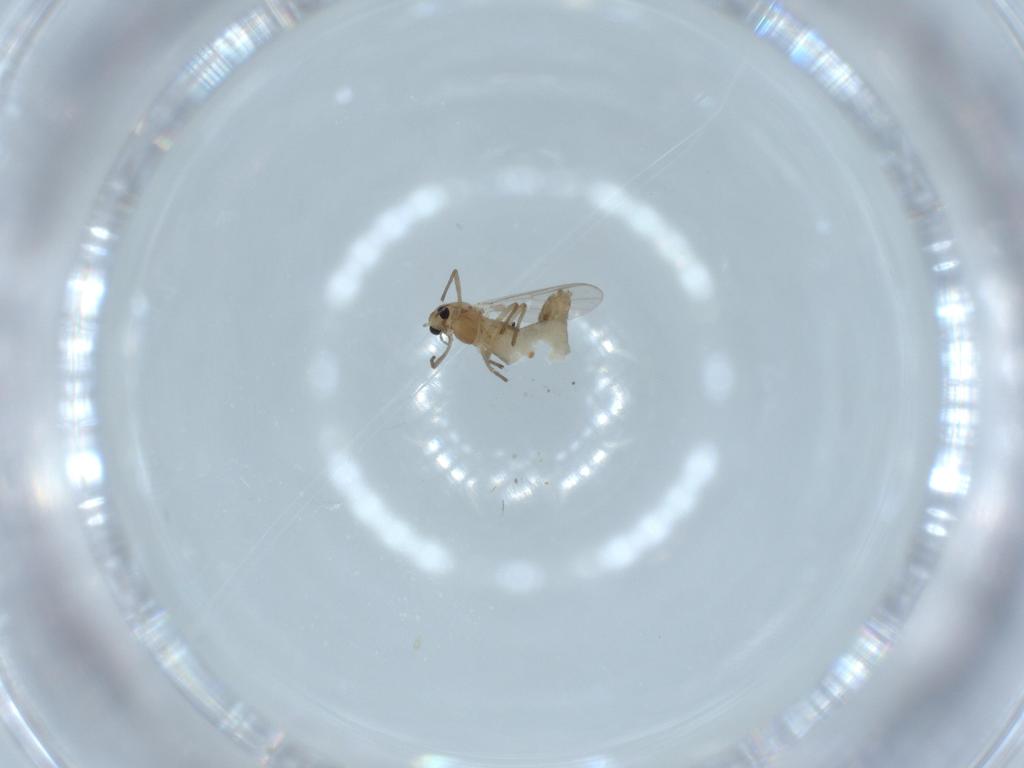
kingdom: Animalia
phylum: Arthropoda
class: Insecta
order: Diptera
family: Chironomidae
